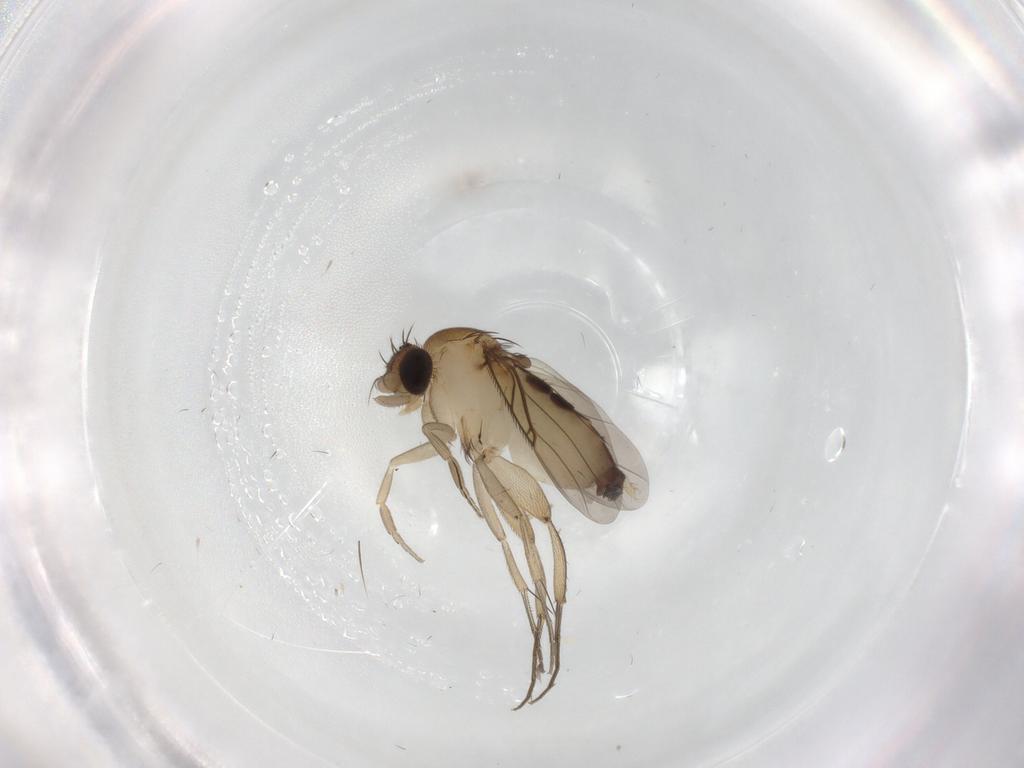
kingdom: Animalia
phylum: Arthropoda
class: Insecta
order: Diptera
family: Phoridae
